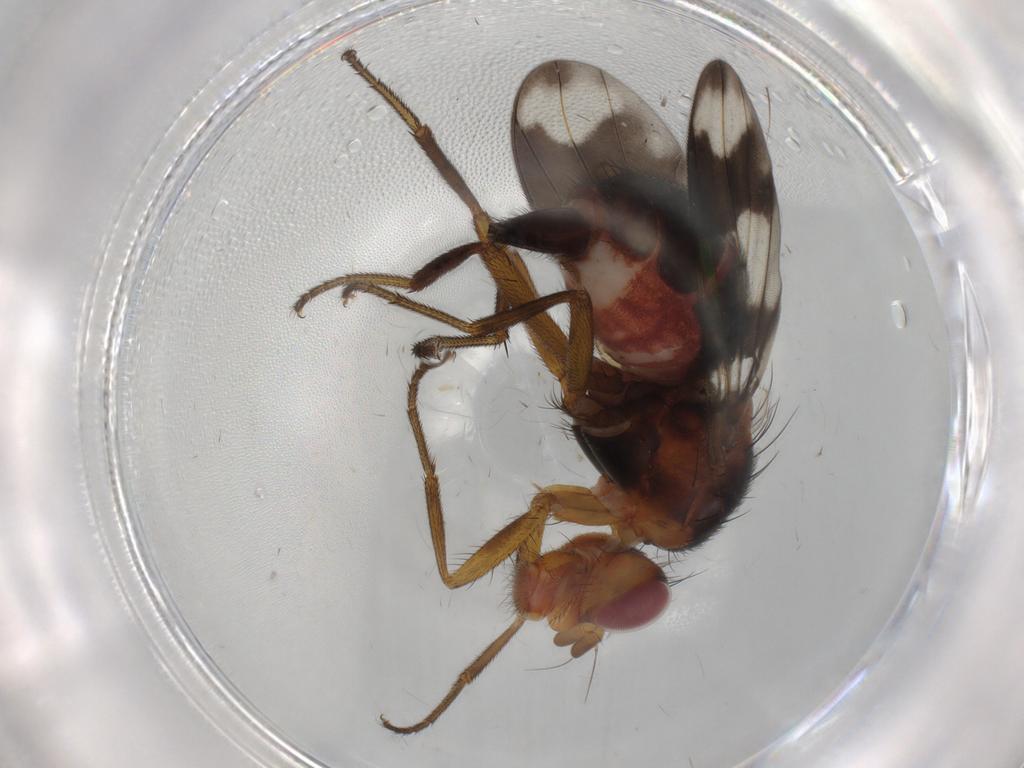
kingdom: Animalia
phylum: Arthropoda
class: Insecta
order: Diptera
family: Richardiidae
